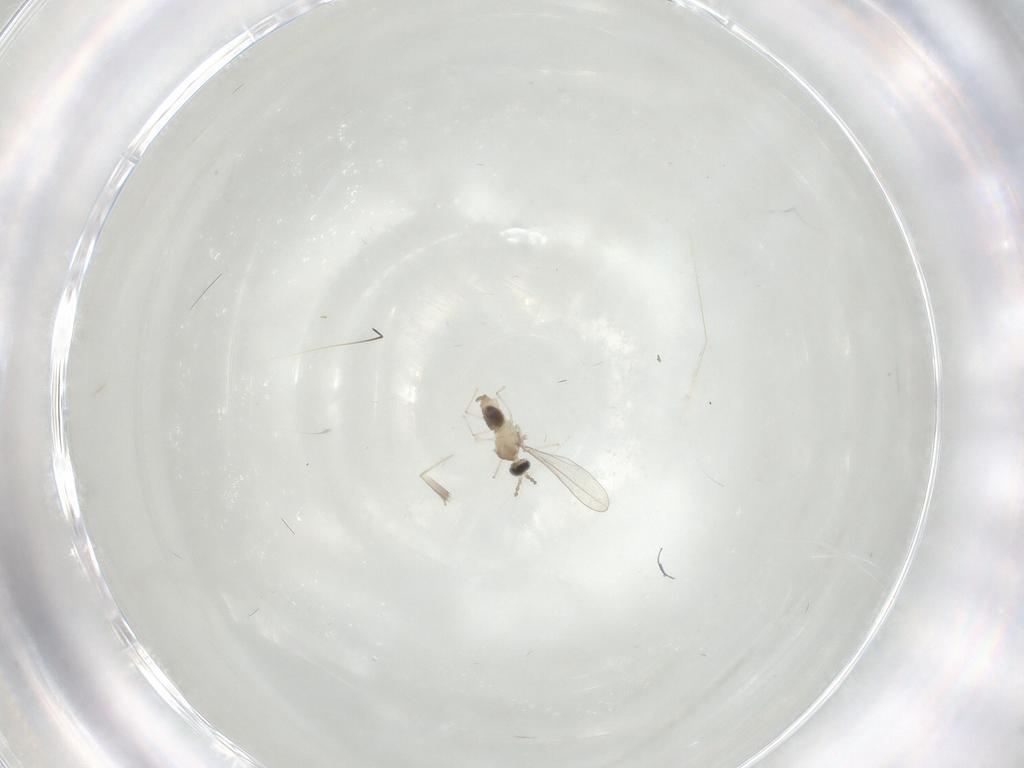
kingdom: Animalia
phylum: Arthropoda
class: Insecta
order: Diptera
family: Cecidomyiidae
